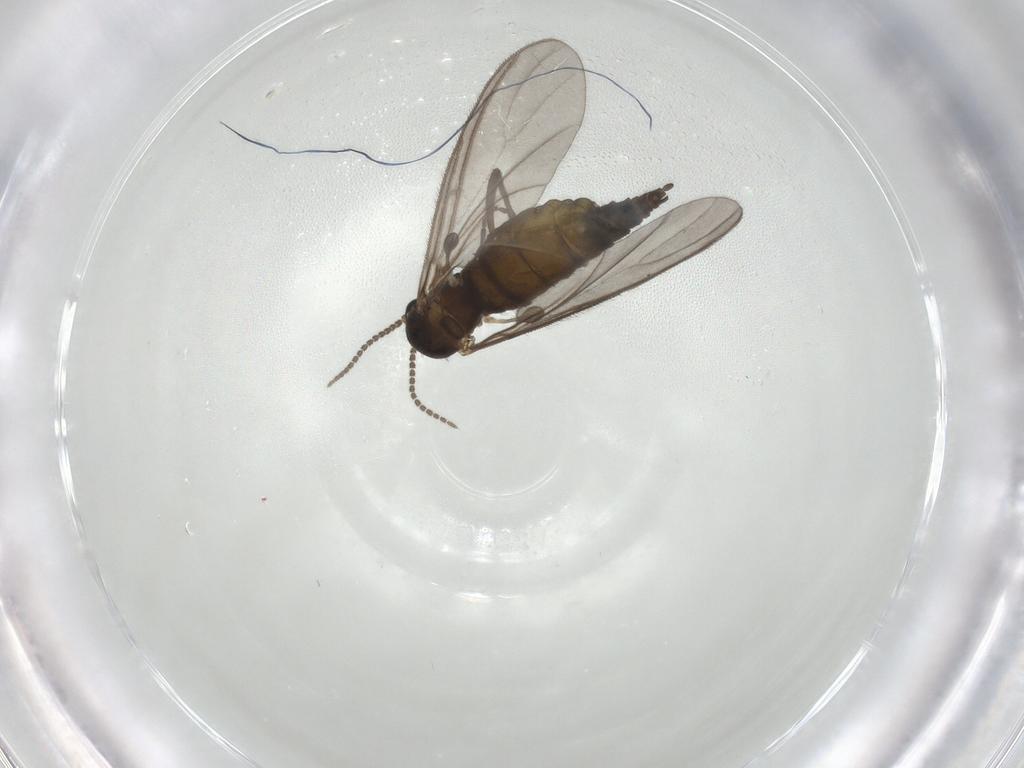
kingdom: Animalia
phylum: Arthropoda
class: Insecta
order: Diptera
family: Sciaridae
